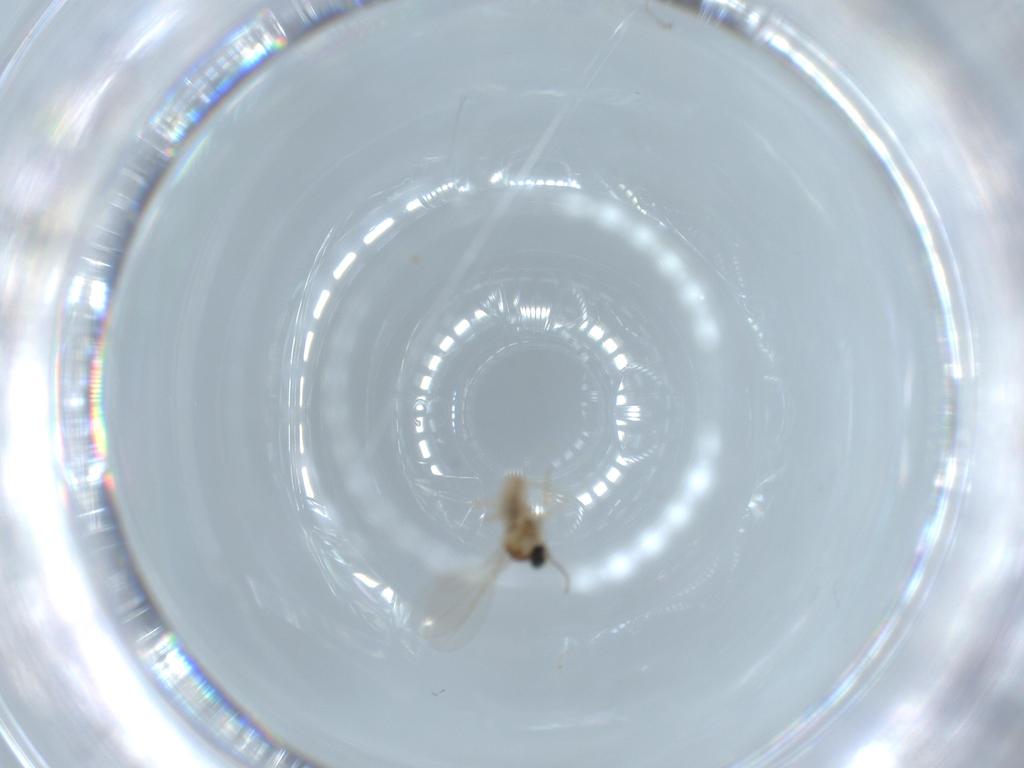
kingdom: Animalia
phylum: Arthropoda
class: Insecta
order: Diptera
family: Cecidomyiidae
